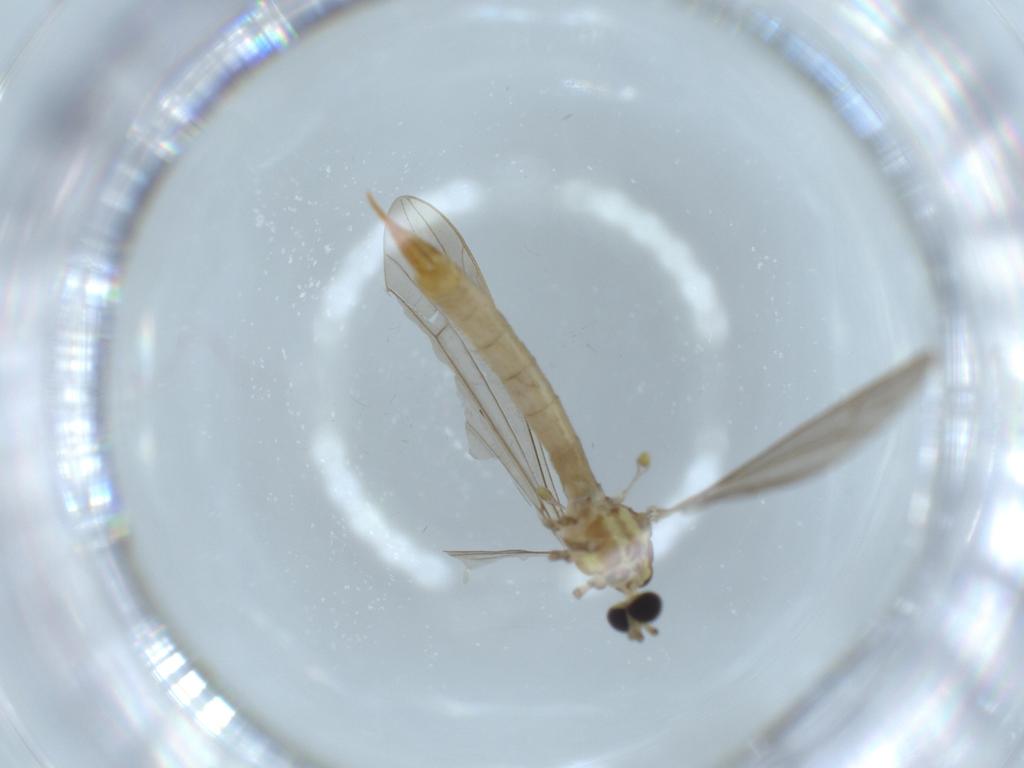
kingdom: Animalia
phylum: Arthropoda
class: Insecta
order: Diptera
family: Limoniidae
